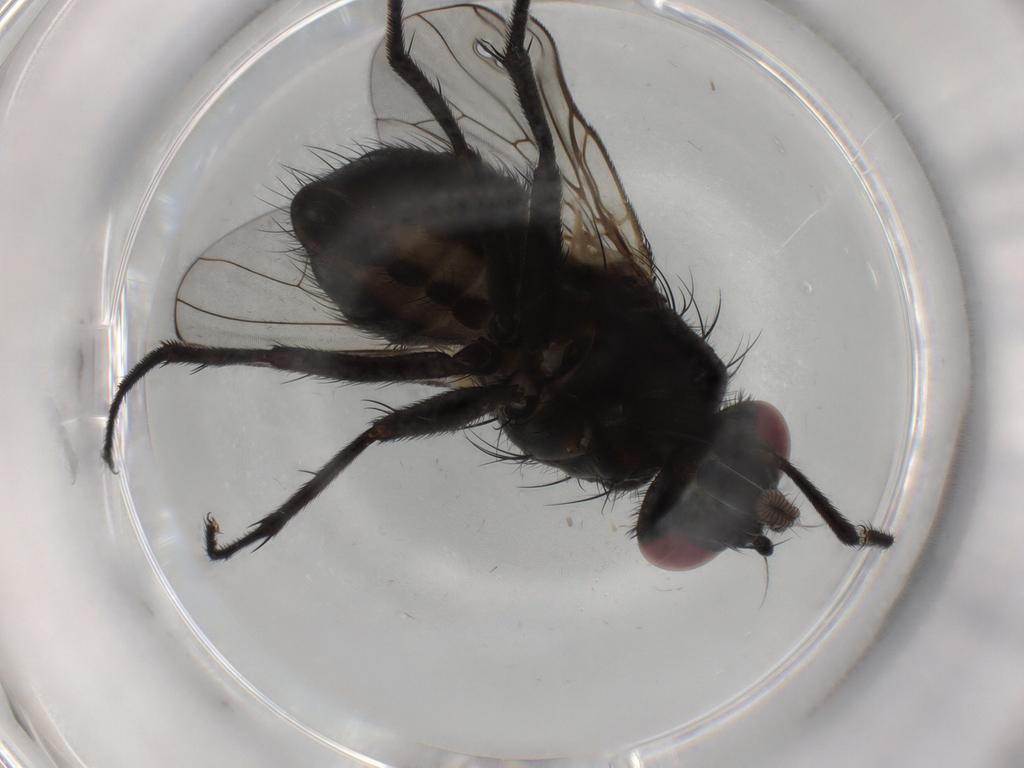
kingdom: Animalia
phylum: Arthropoda
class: Insecta
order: Diptera
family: Muscidae
